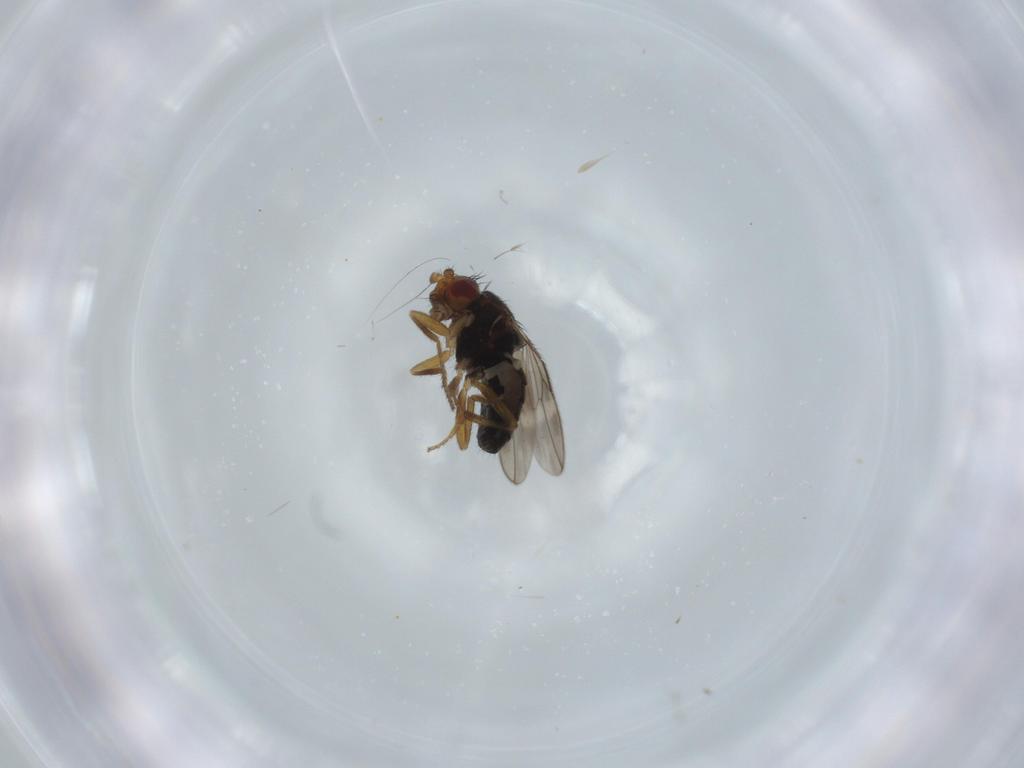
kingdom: Animalia
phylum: Arthropoda
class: Insecta
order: Diptera
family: Sphaeroceridae
